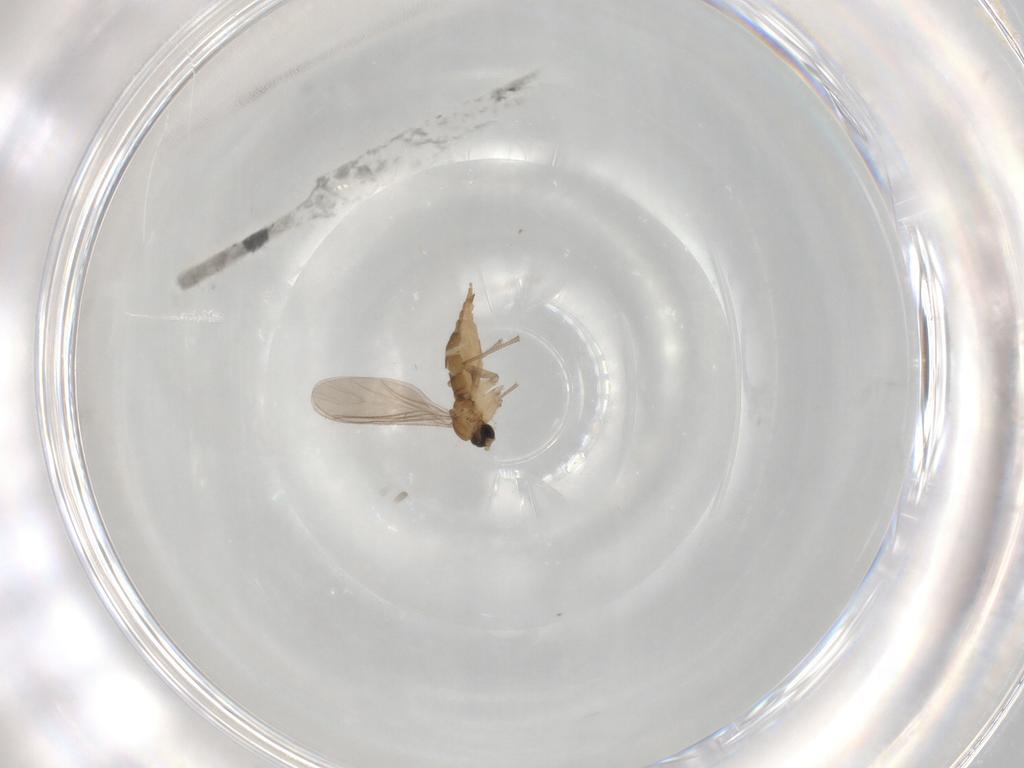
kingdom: Animalia
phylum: Arthropoda
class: Insecta
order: Diptera
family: Sciaridae
